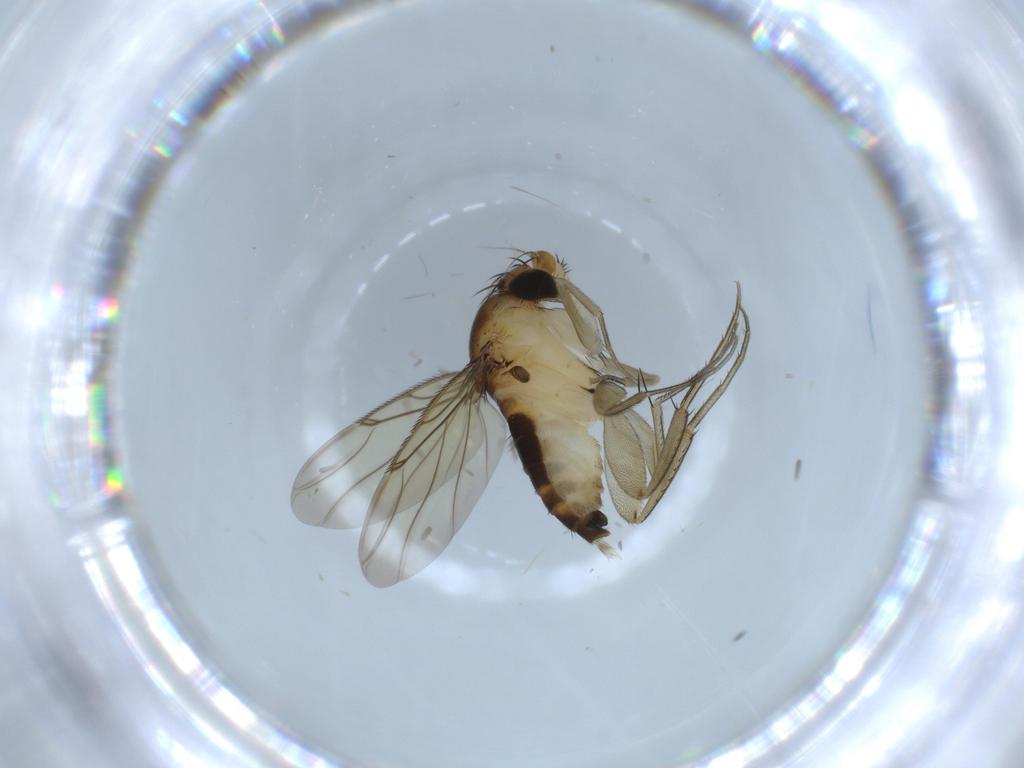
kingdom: Animalia
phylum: Arthropoda
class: Insecta
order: Diptera
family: Phoridae
